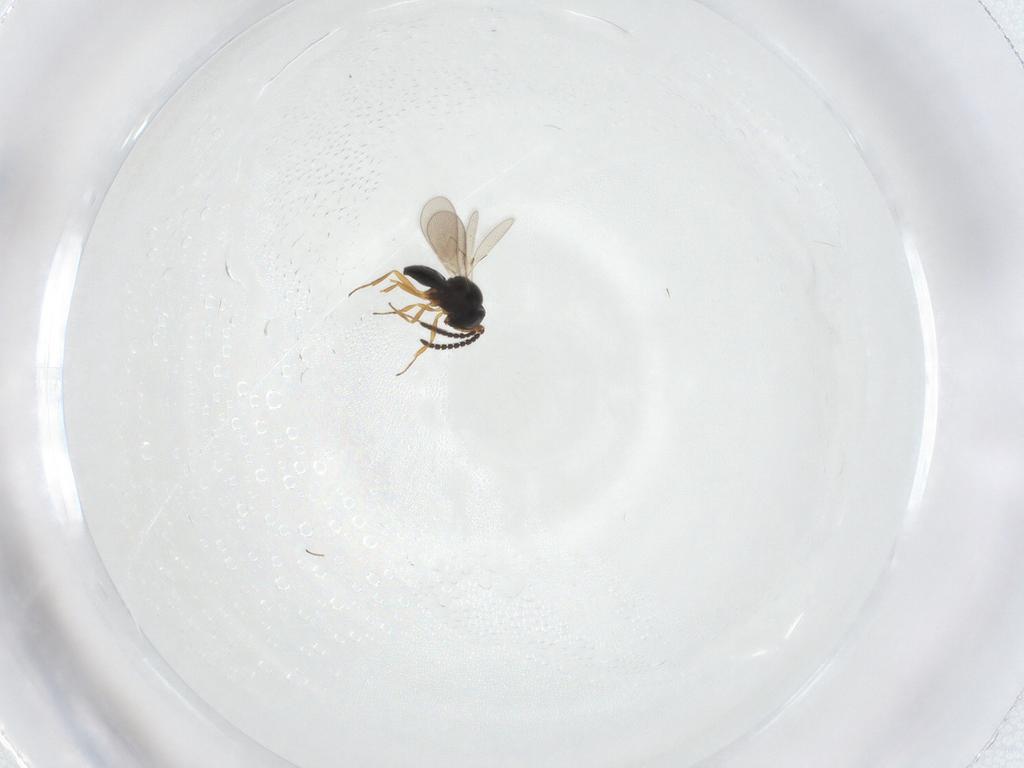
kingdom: Animalia
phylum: Arthropoda
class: Insecta
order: Hymenoptera
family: Scelionidae
